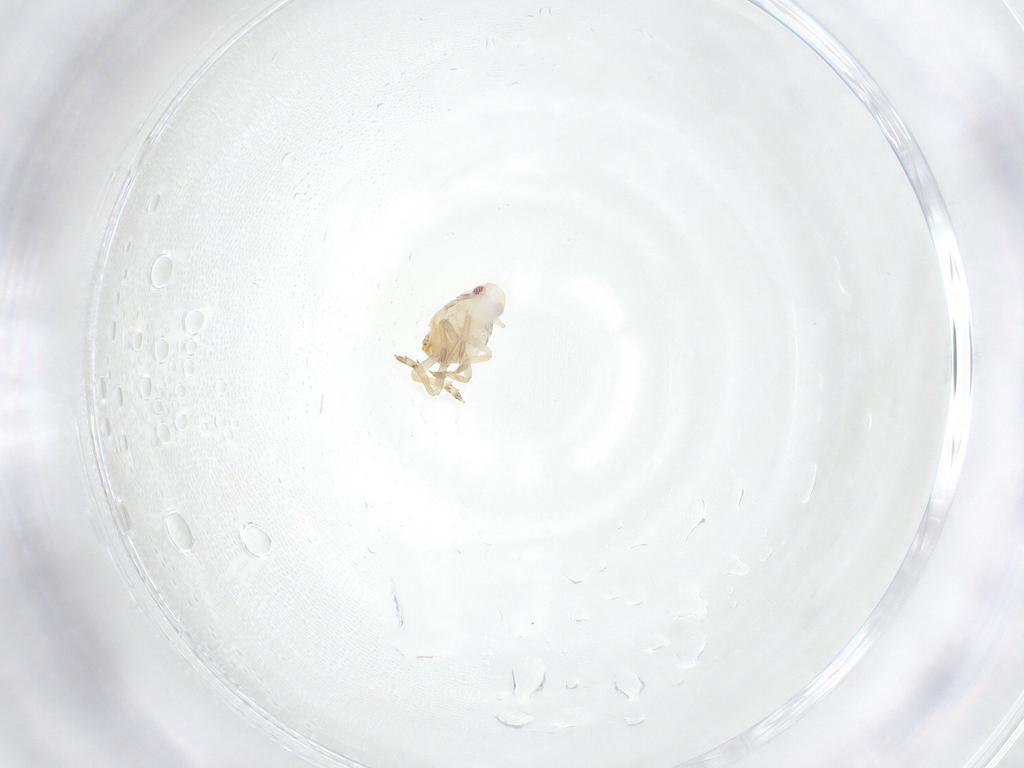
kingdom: Animalia
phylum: Arthropoda
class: Insecta
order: Hemiptera
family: Flatidae
